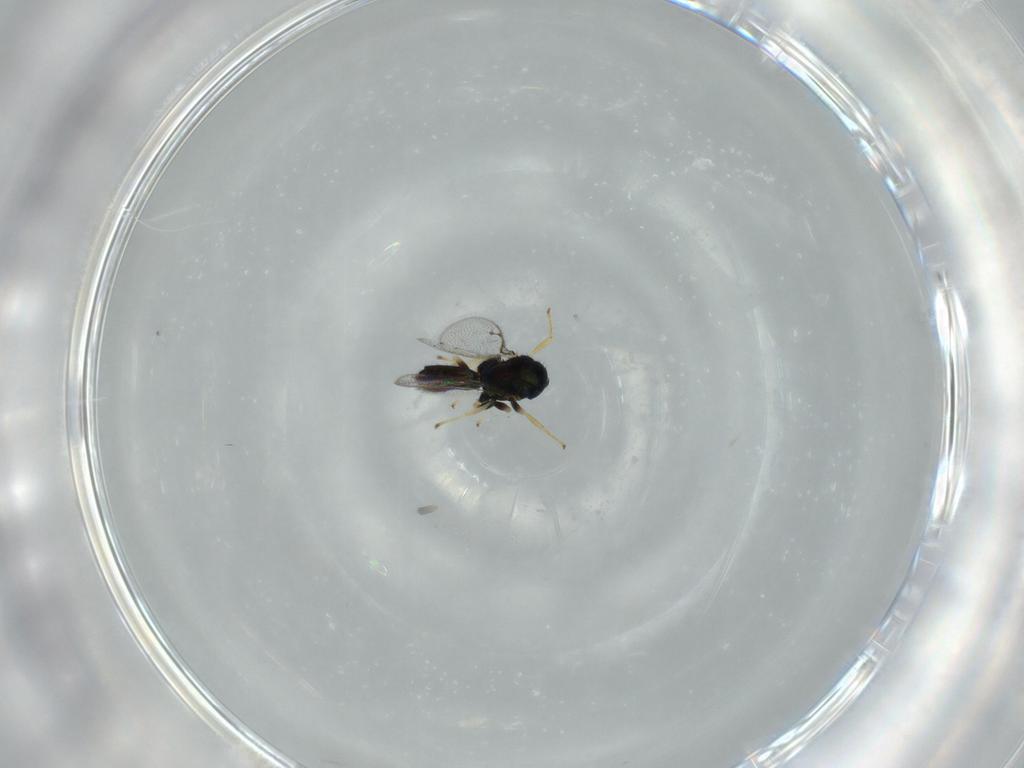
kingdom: Animalia
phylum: Arthropoda
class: Insecta
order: Hymenoptera
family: Pirenidae
